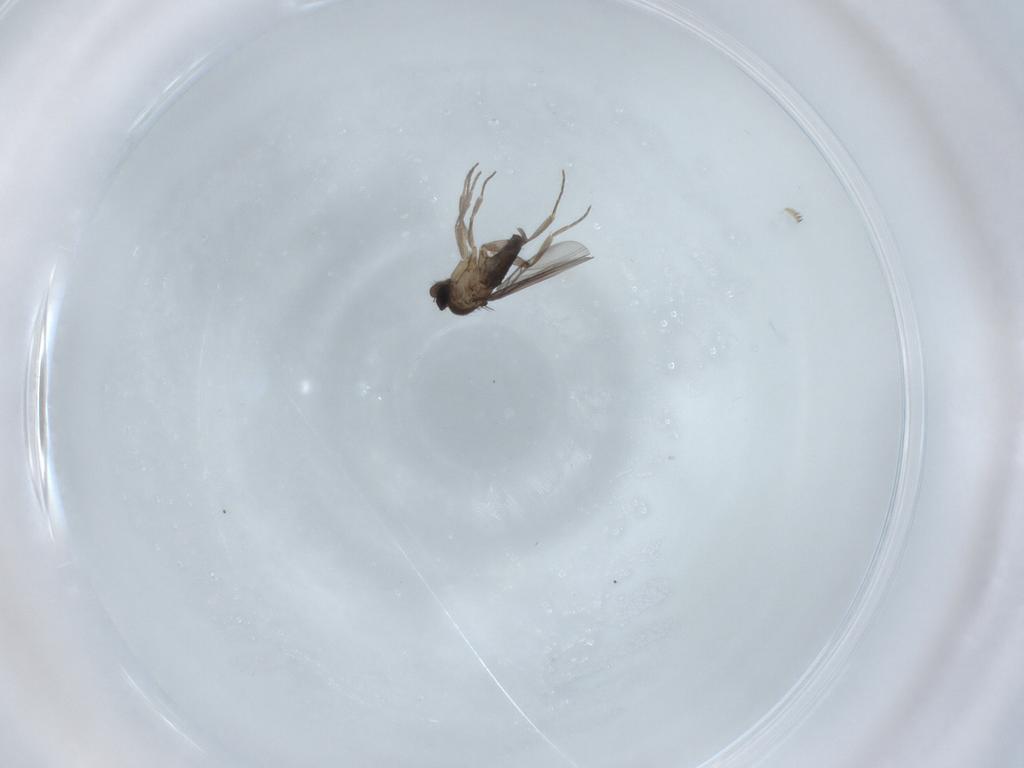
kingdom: Animalia
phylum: Arthropoda
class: Insecta
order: Diptera
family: Phoridae
